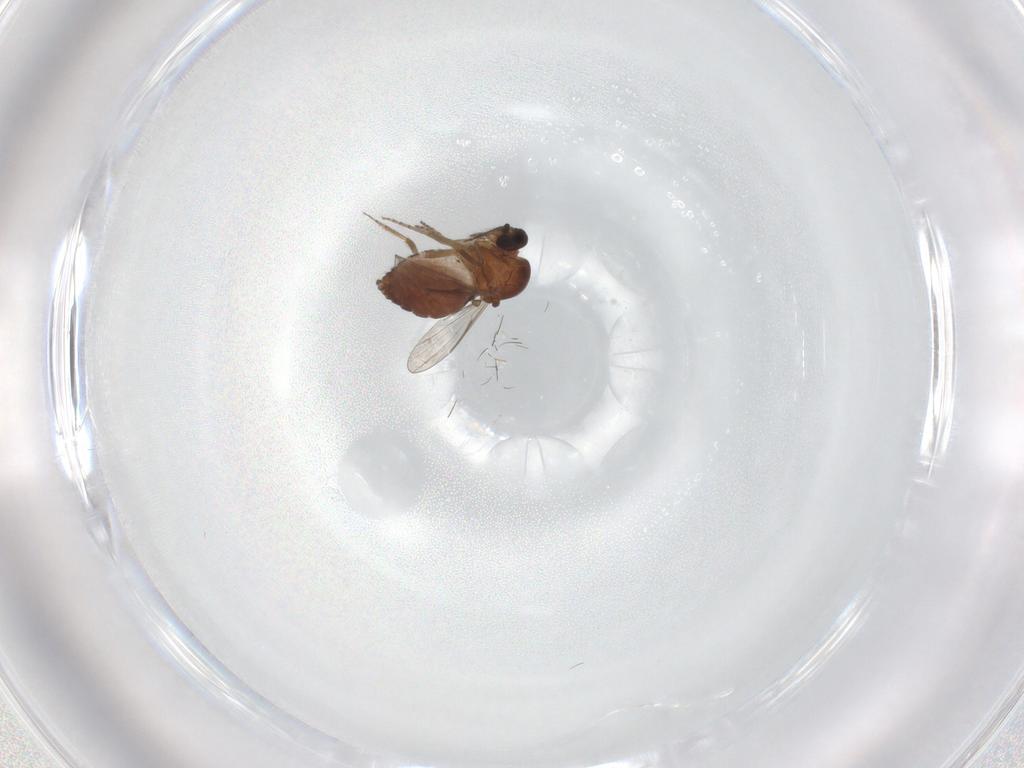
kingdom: Animalia
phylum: Arthropoda
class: Insecta
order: Diptera
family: Ceratopogonidae
